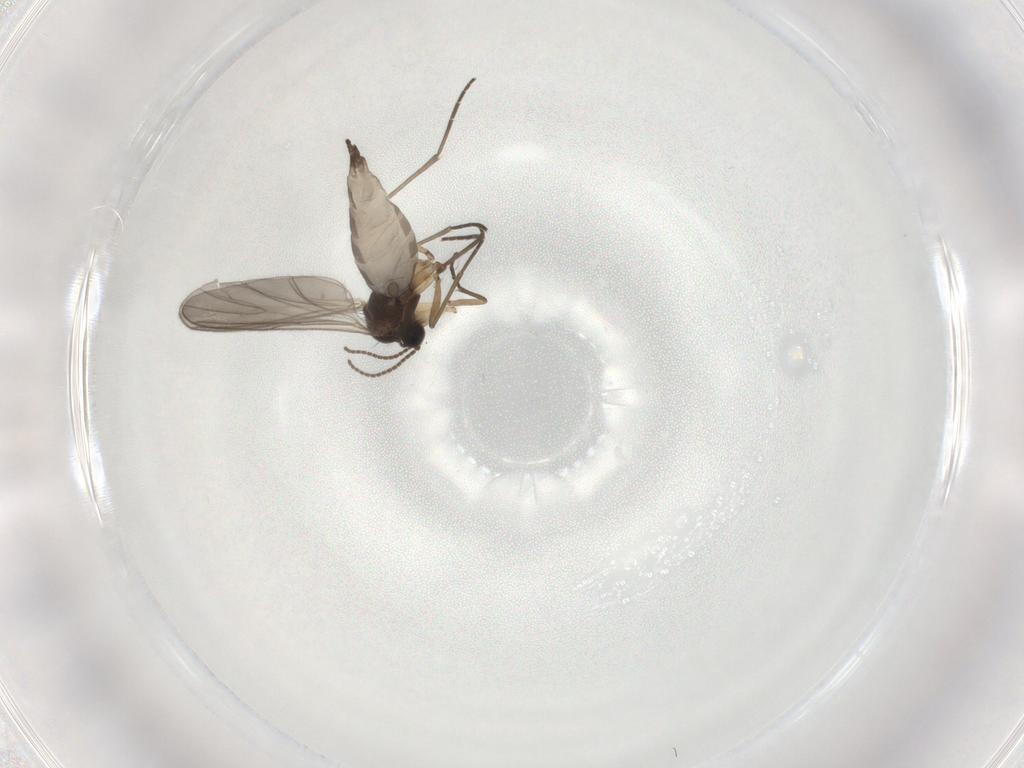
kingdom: Animalia
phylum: Arthropoda
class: Insecta
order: Diptera
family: Sciaridae
